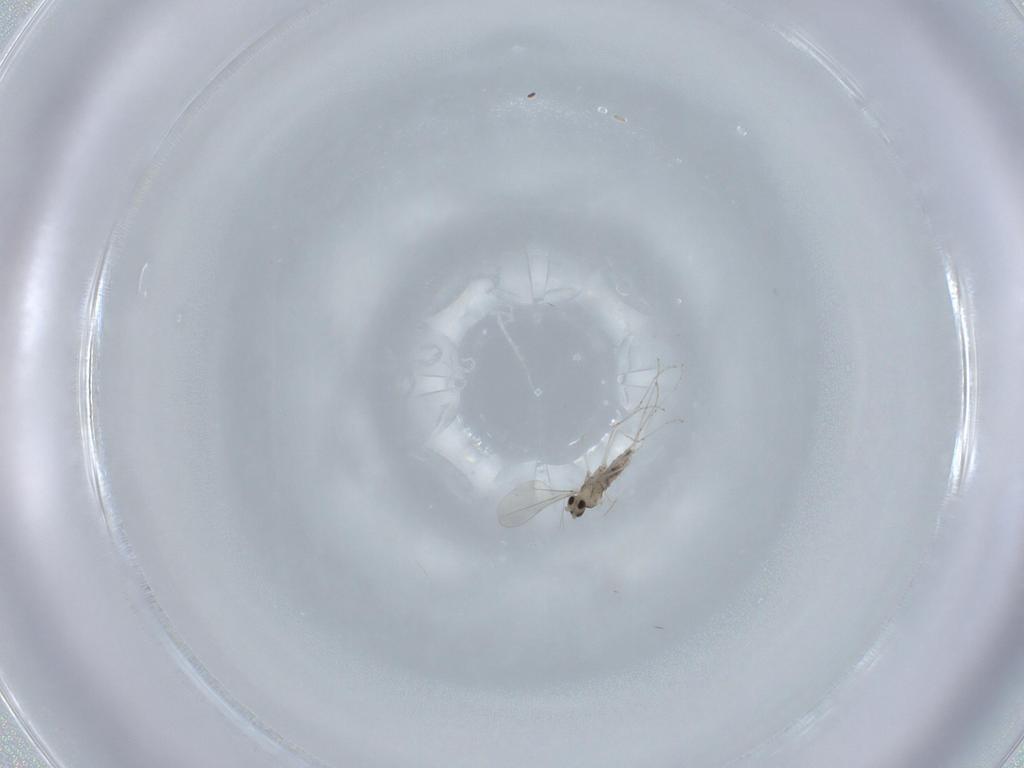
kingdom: Animalia
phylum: Arthropoda
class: Insecta
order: Diptera
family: Cecidomyiidae
